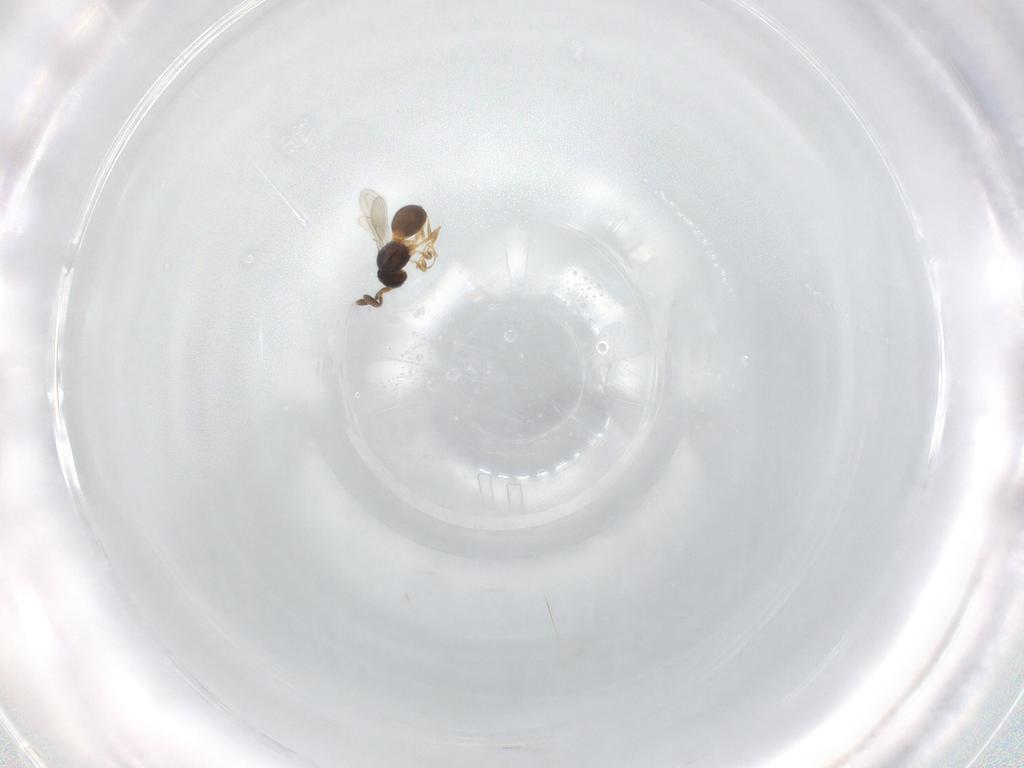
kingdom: Animalia
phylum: Arthropoda
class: Insecta
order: Hymenoptera
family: Scelionidae
